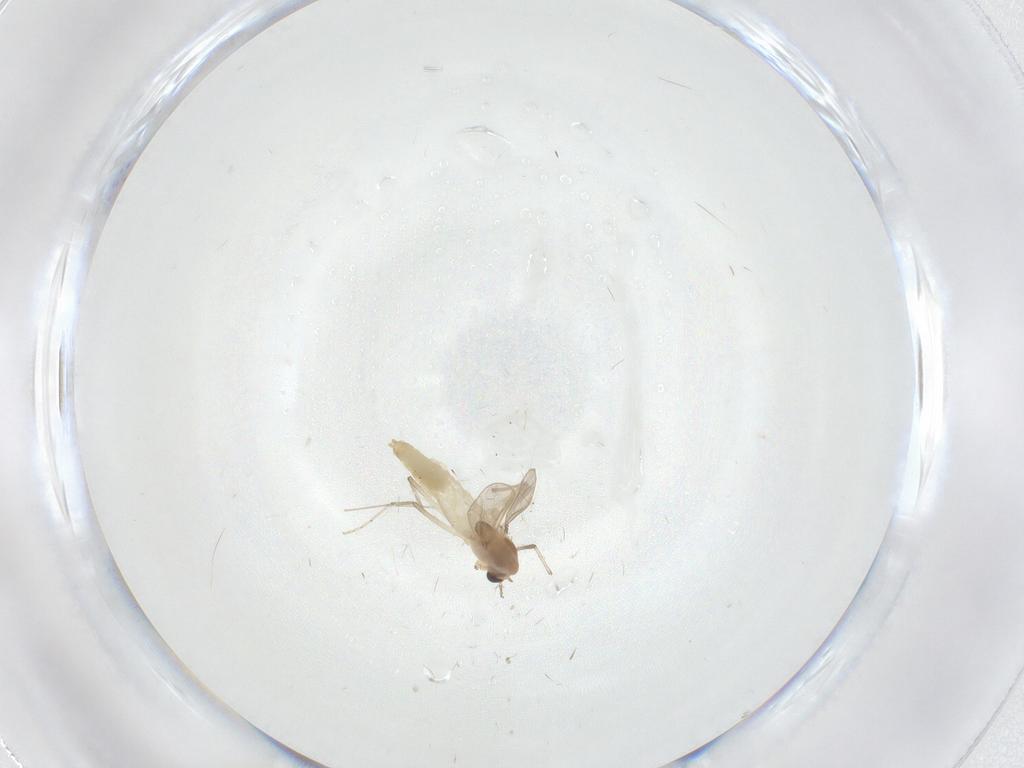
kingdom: Animalia
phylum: Arthropoda
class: Insecta
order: Diptera
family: Chironomidae
